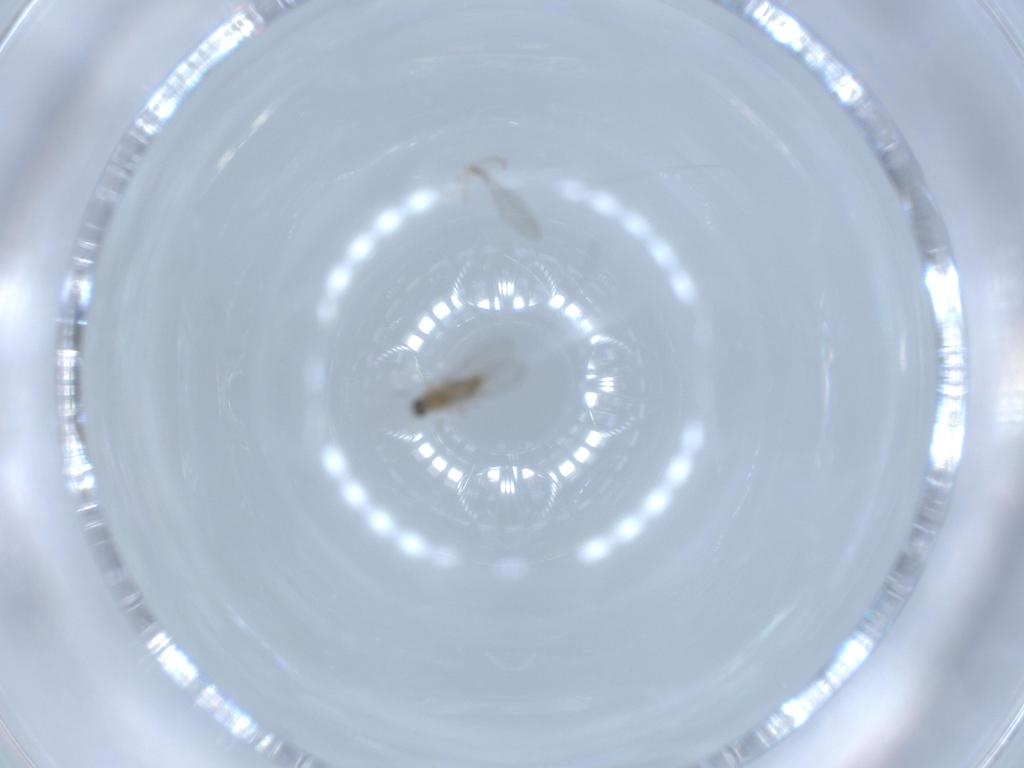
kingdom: Animalia
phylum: Arthropoda
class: Insecta
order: Diptera
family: Cecidomyiidae
